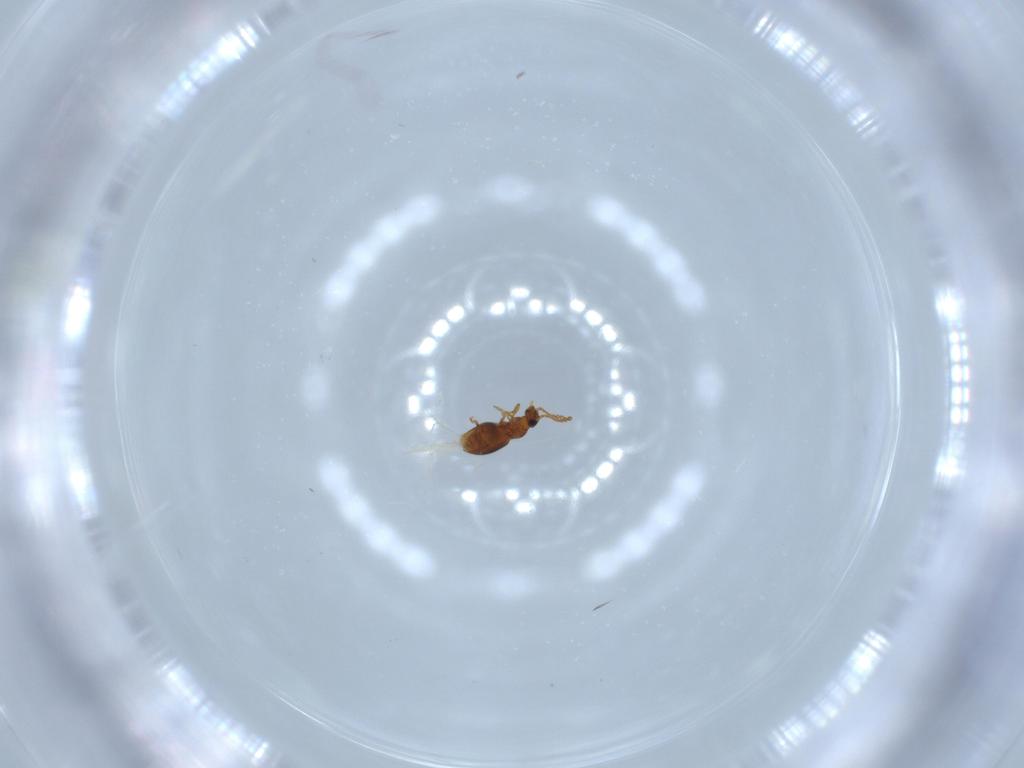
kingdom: Animalia
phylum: Arthropoda
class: Insecta
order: Coleoptera
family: Staphylinidae
